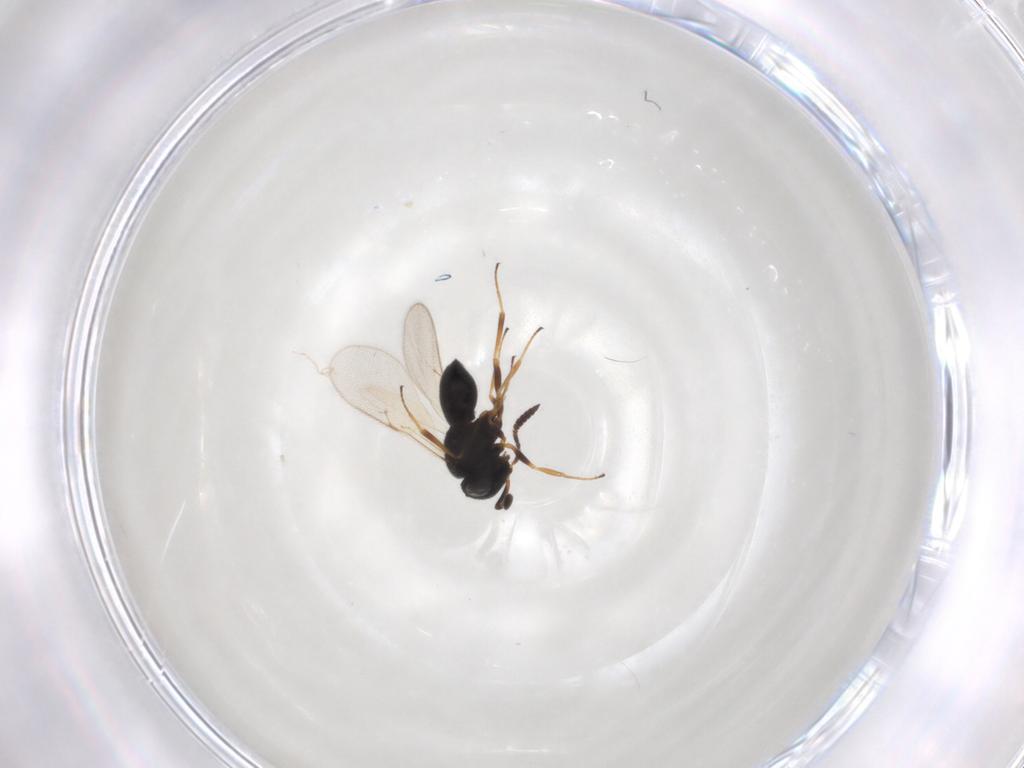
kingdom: Animalia
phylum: Arthropoda
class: Insecta
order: Hymenoptera
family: Scelionidae
